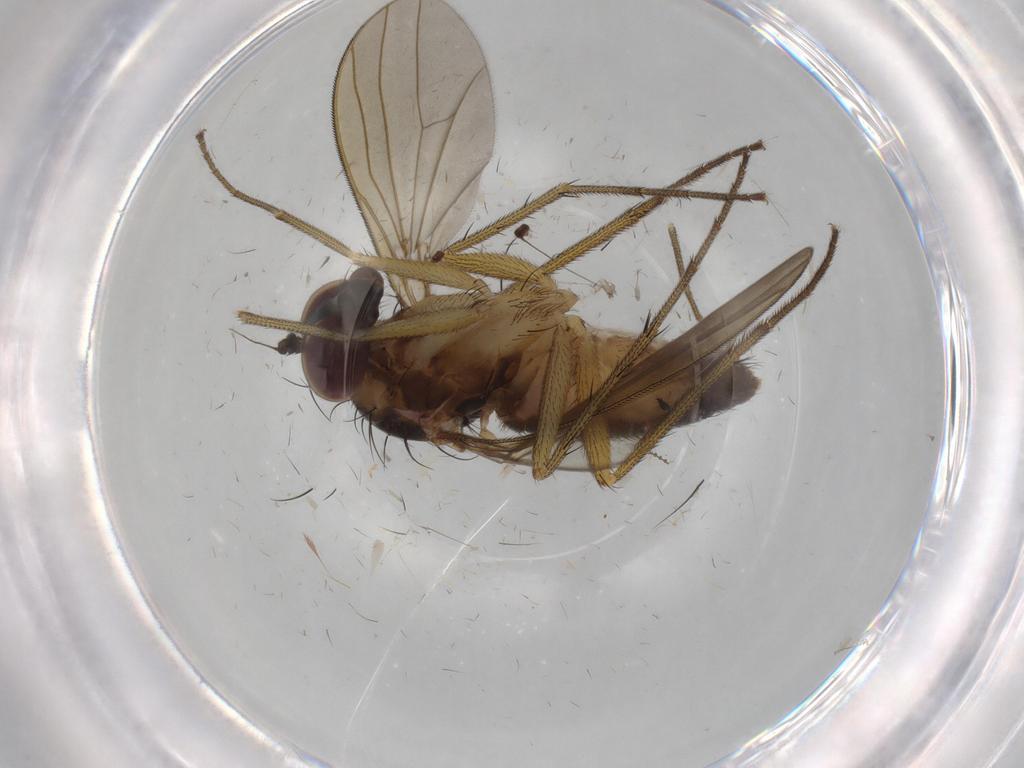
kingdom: Animalia
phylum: Arthropoda
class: Insecta
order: Diptera
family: Dolichopodidae
